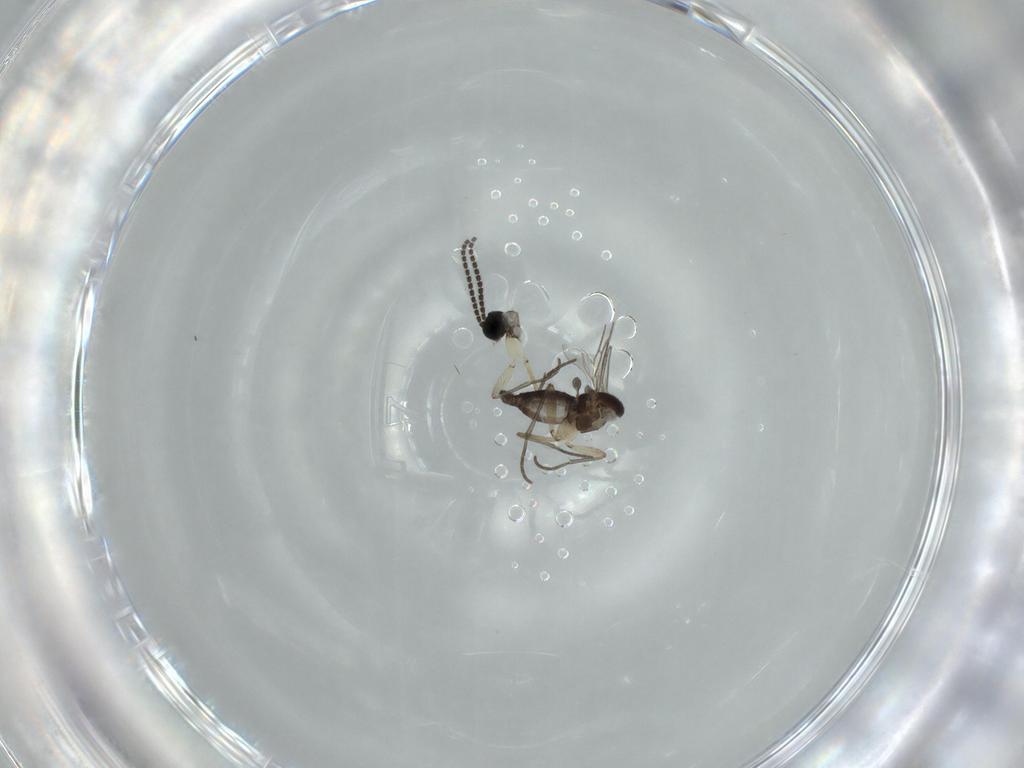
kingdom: Animalia
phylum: Arthropoda
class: Insecta
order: Diptera
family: Sciaridae
